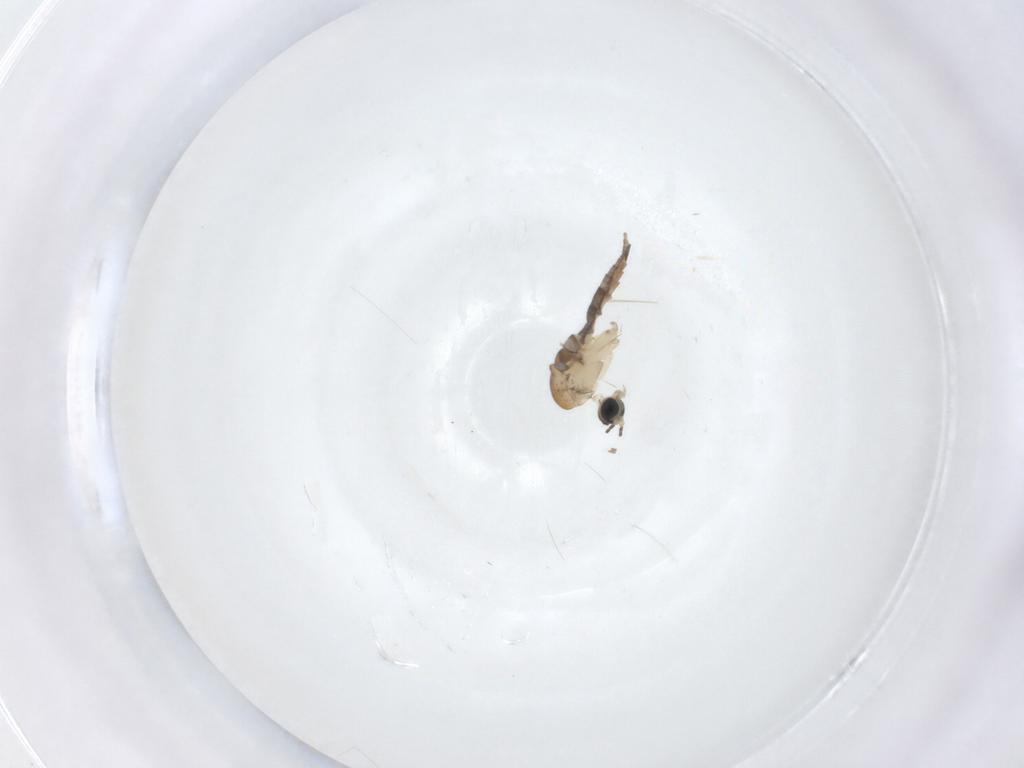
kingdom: Animalia
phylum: Arthropoda
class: Insecta
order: Diptera
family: Sciaridae
